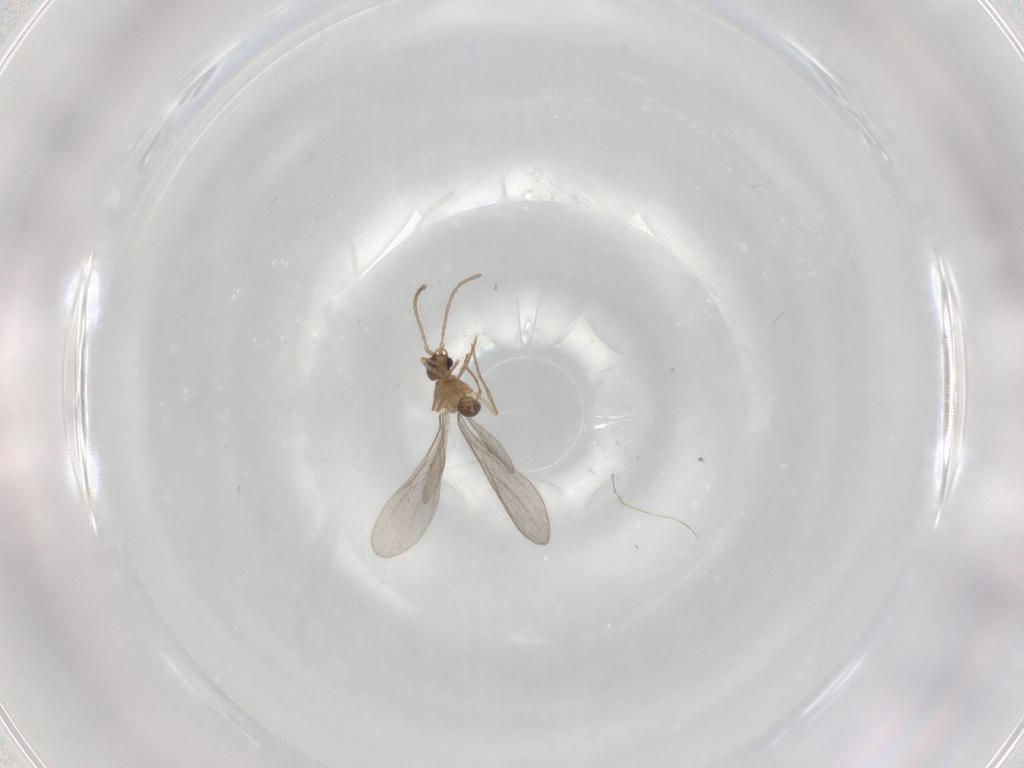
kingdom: Animalia
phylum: Arthropoda
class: Insecta
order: Hymenoptera
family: Formicidae
